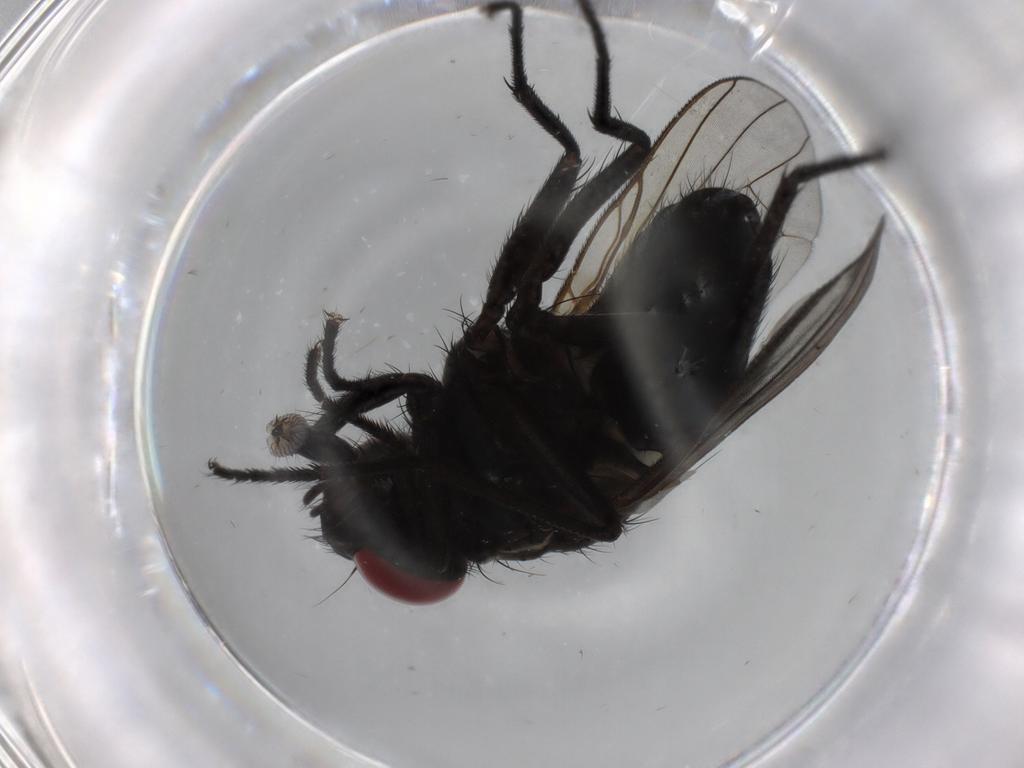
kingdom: Animalia
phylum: Arthropoda
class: Insecta
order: Diptera
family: Muscidae
